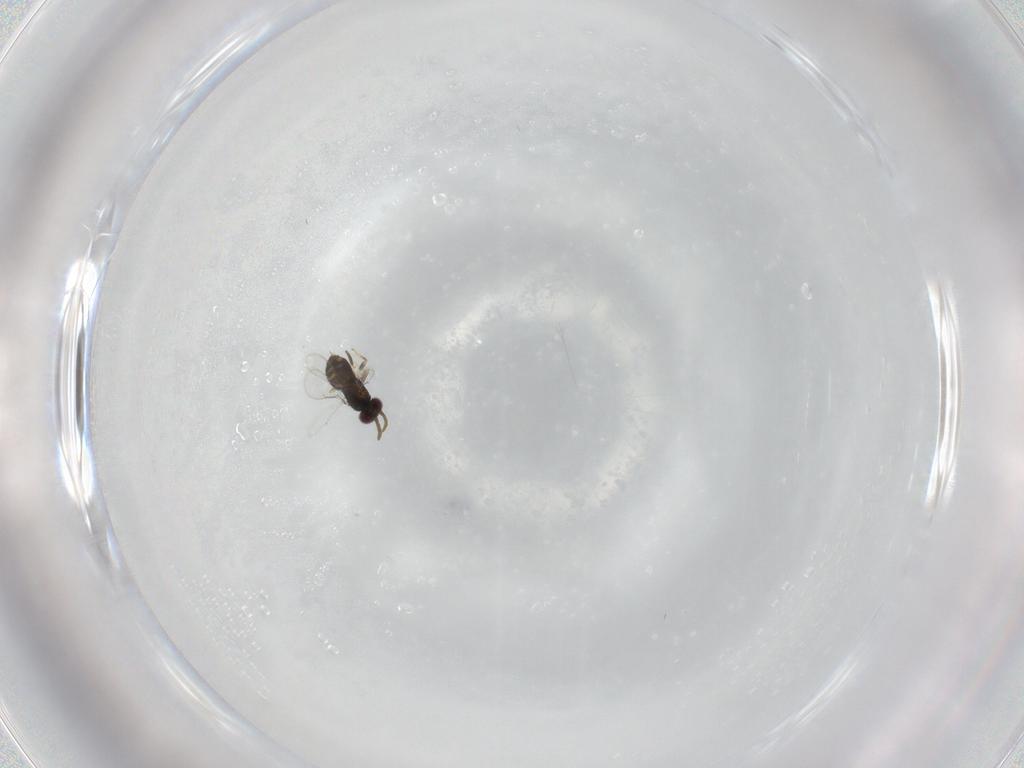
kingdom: Animalia
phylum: Arthropoda
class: Insecta
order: Hymenoptera
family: Aphelinidae
